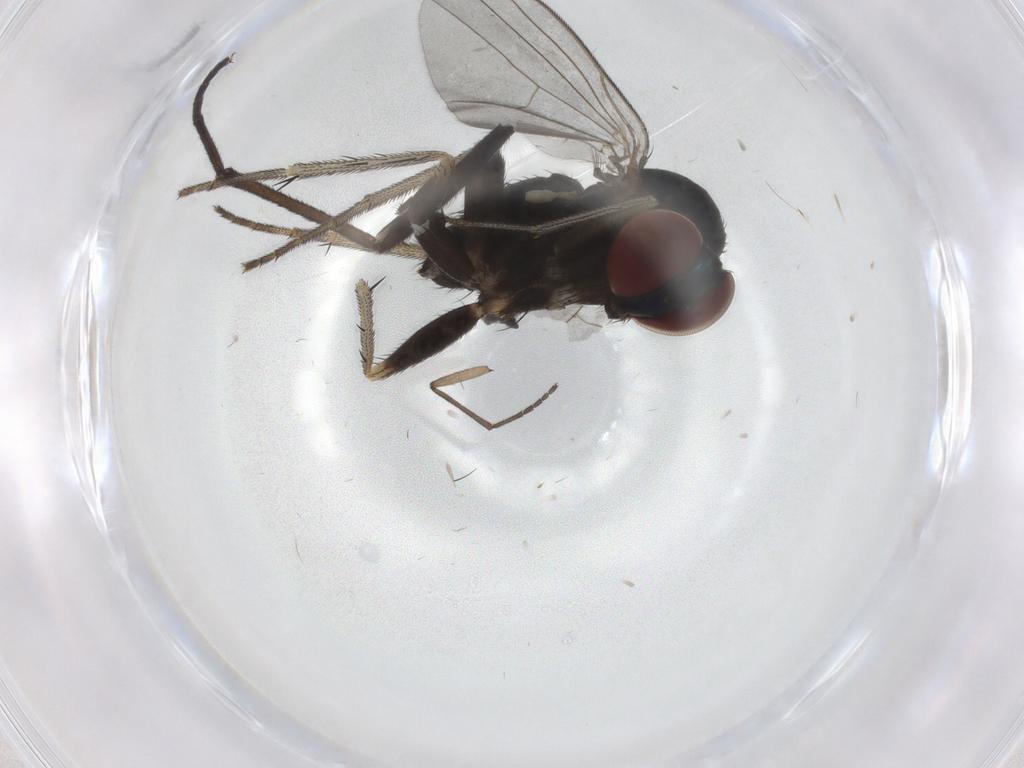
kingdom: Animalia
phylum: Arthropoda
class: Insecta
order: Diptera
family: Dolichopodidae
